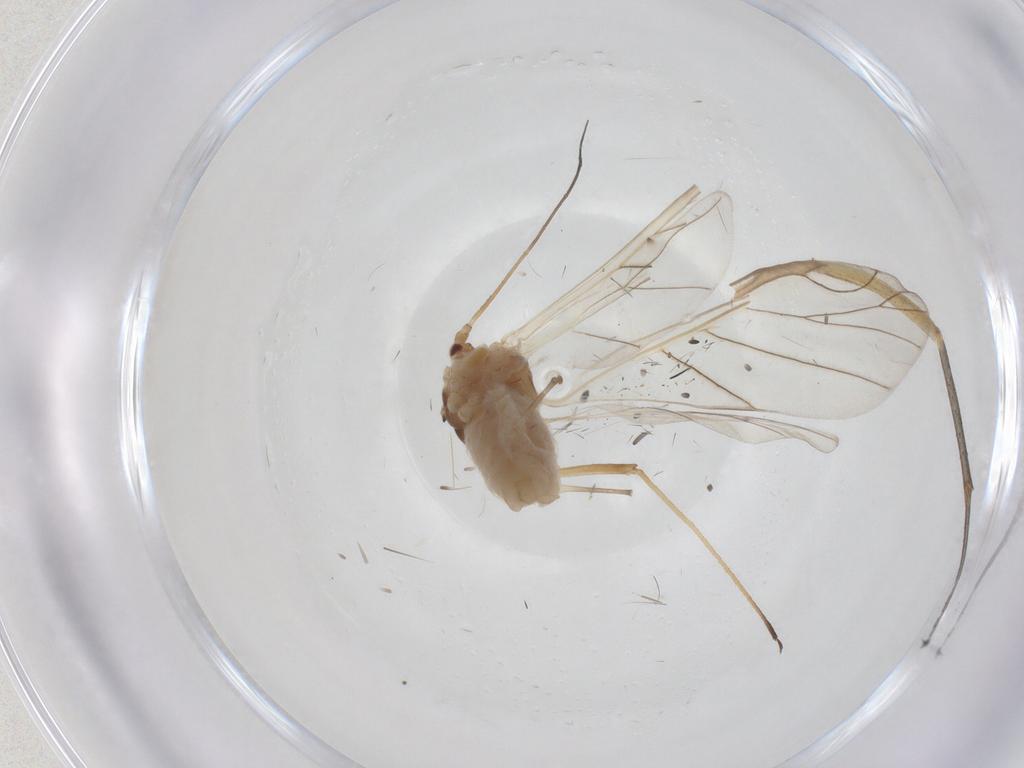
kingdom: Animalia
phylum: Arthropoda
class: Insecta
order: Hemiptera
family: Aphididae
